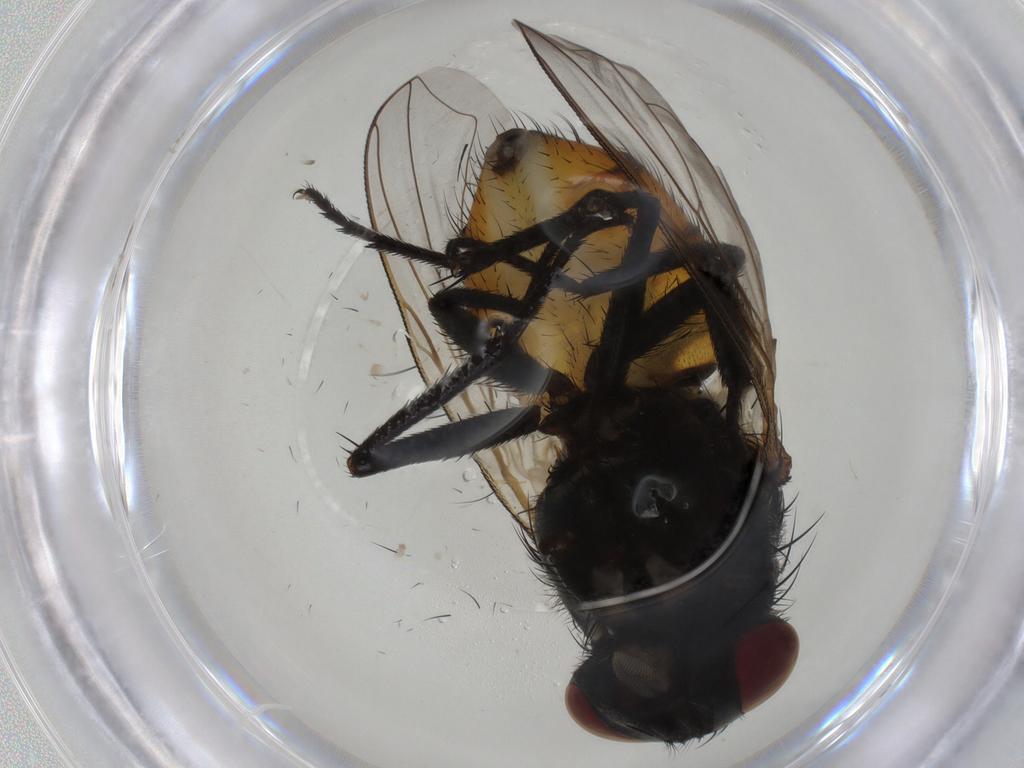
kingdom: Animalia
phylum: Arthropoda
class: Insecta
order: Diptera
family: Muscidae
